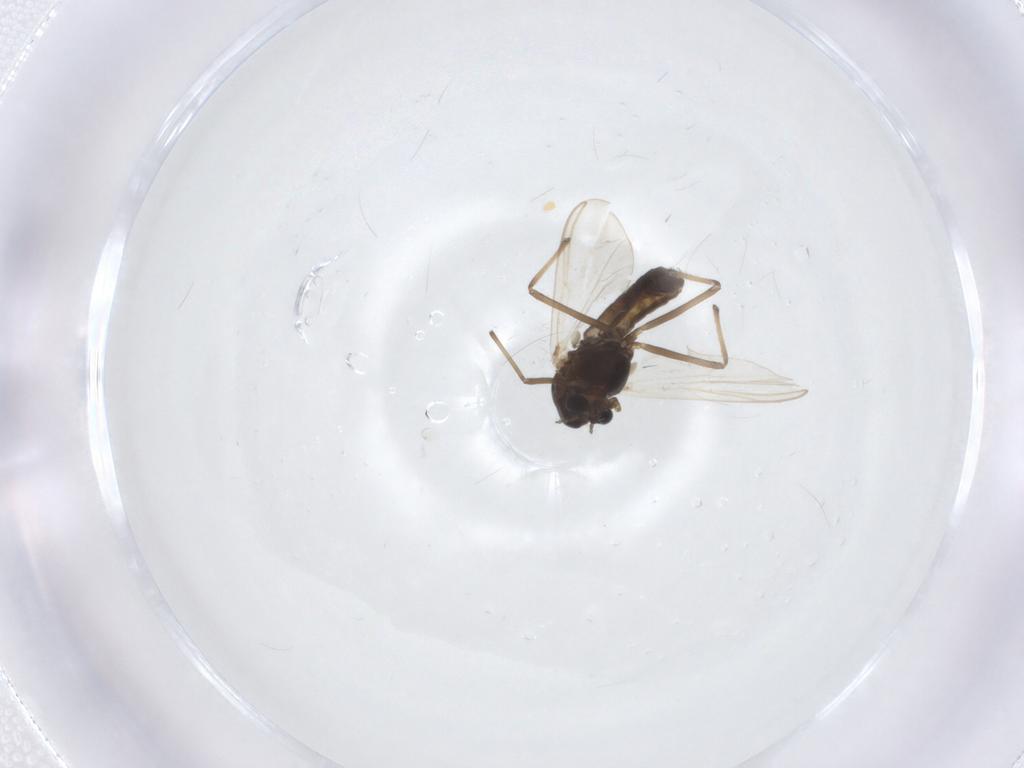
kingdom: Animalia
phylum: Arthropoda
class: Insecta
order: Diptera
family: Chironomidae
